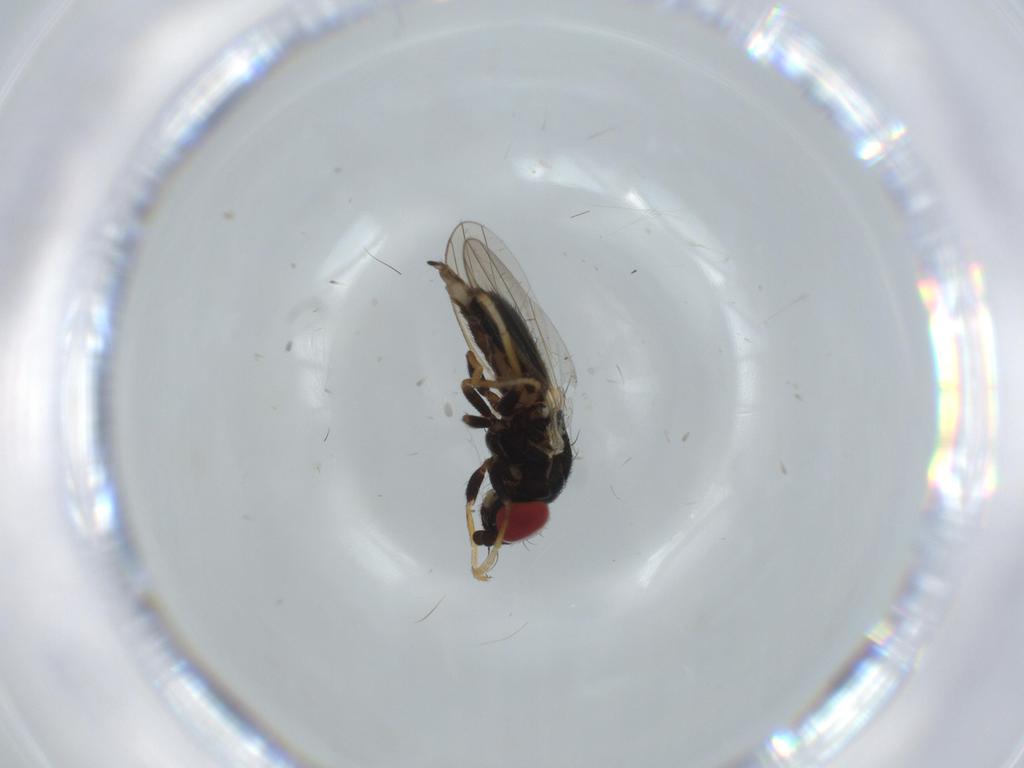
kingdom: Animalia
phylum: Arthropoda
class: Insecta
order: Diptera
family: Chamaemyiidae
